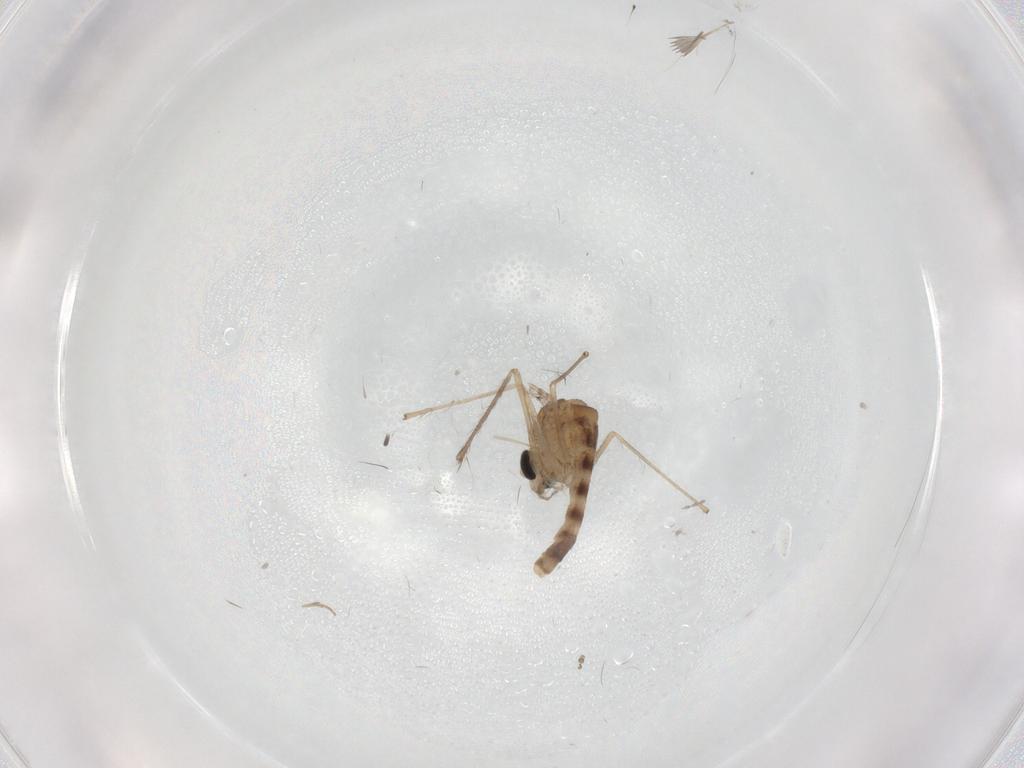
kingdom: Animalia
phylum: Arthropoda
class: Insecta
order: Diptera
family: Chironomidae
